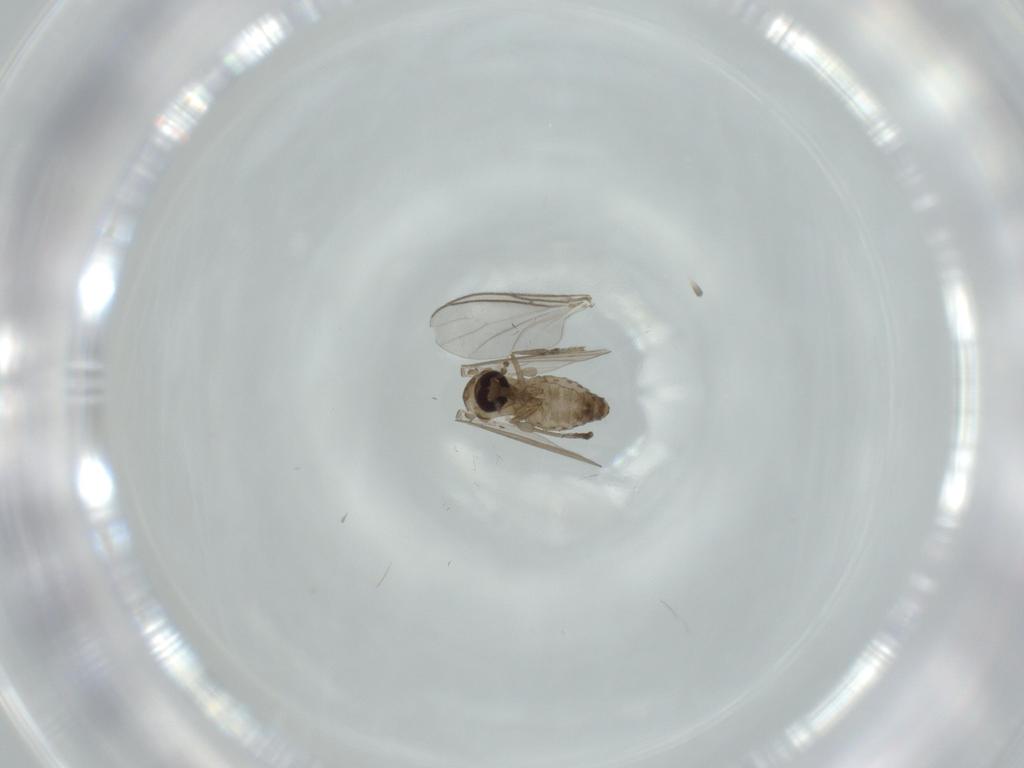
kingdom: Animalia
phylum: Arthropoda
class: Insecta
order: Diptera
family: Sciaridae
